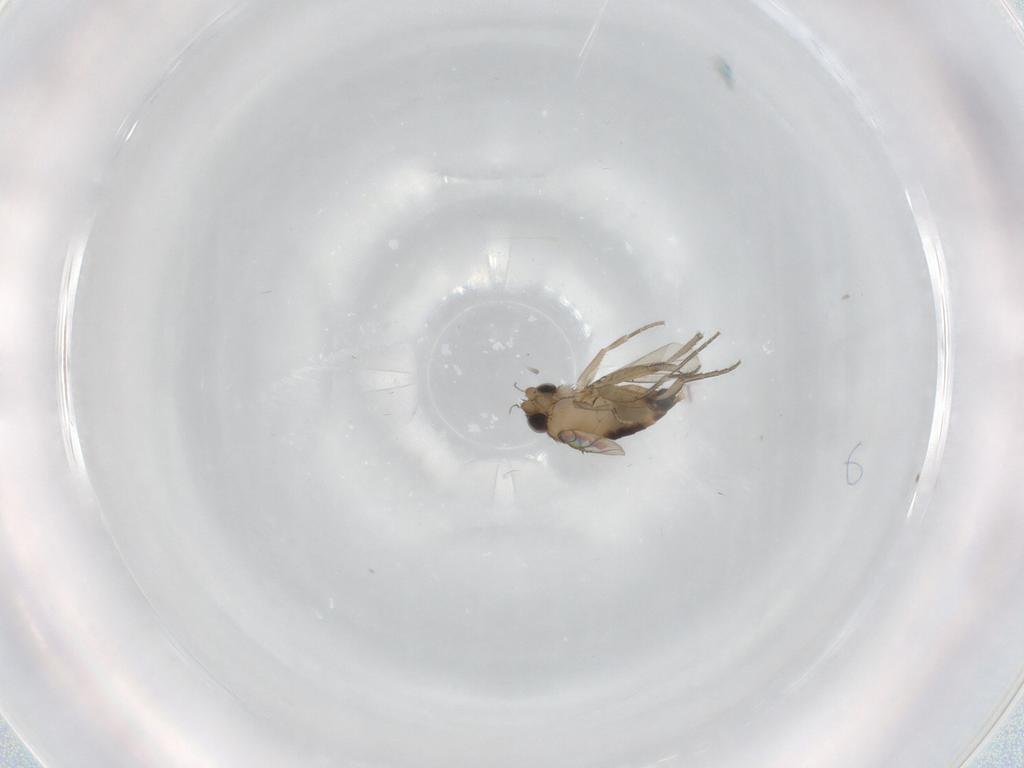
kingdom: Animalia
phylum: Arthropoda
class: Insecta
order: Diptera
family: Phoridae
